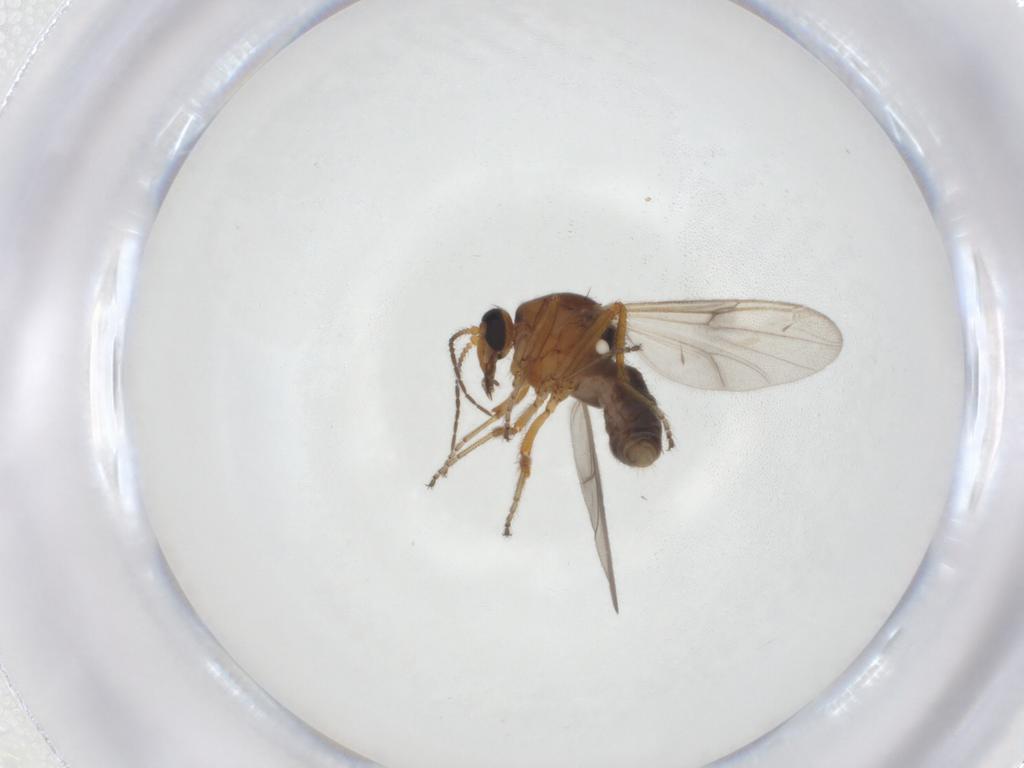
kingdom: Animalia
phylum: Arthropoda
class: Insecta
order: Diptera
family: Ceratopogonidae
